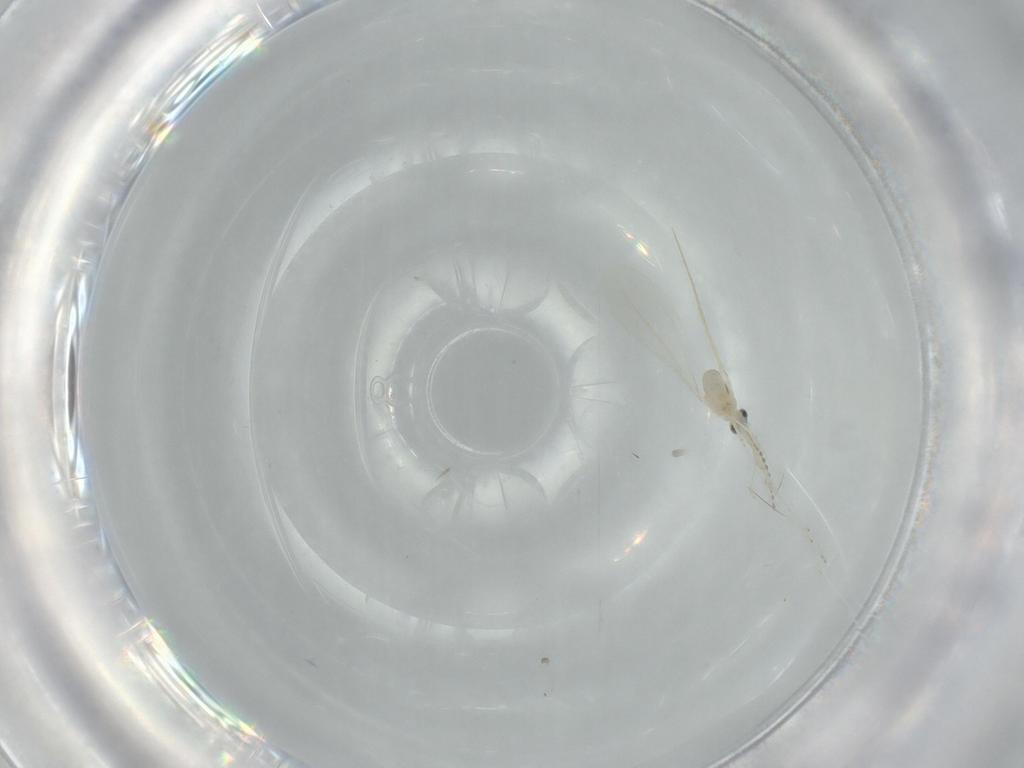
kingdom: Animalia
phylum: Arthropoda
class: Insecta
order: Diptera
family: Cecidomyiidae
